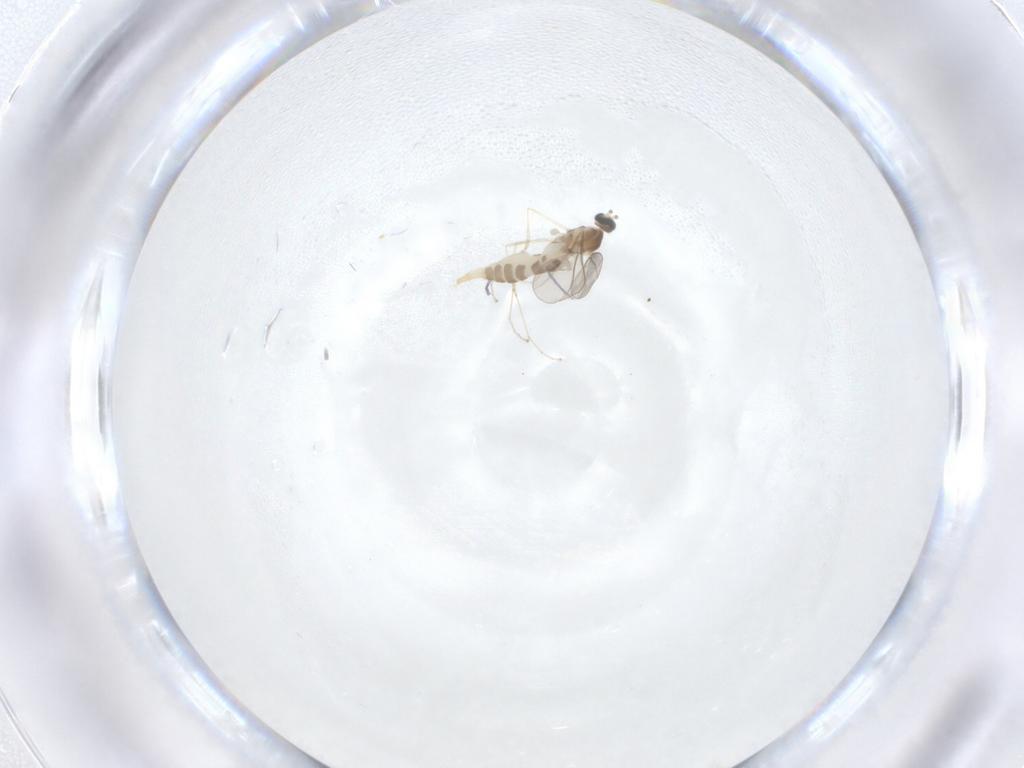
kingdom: Animalia
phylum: Arthropoda
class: Insecta
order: Diptera
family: Cecidomyiidae
